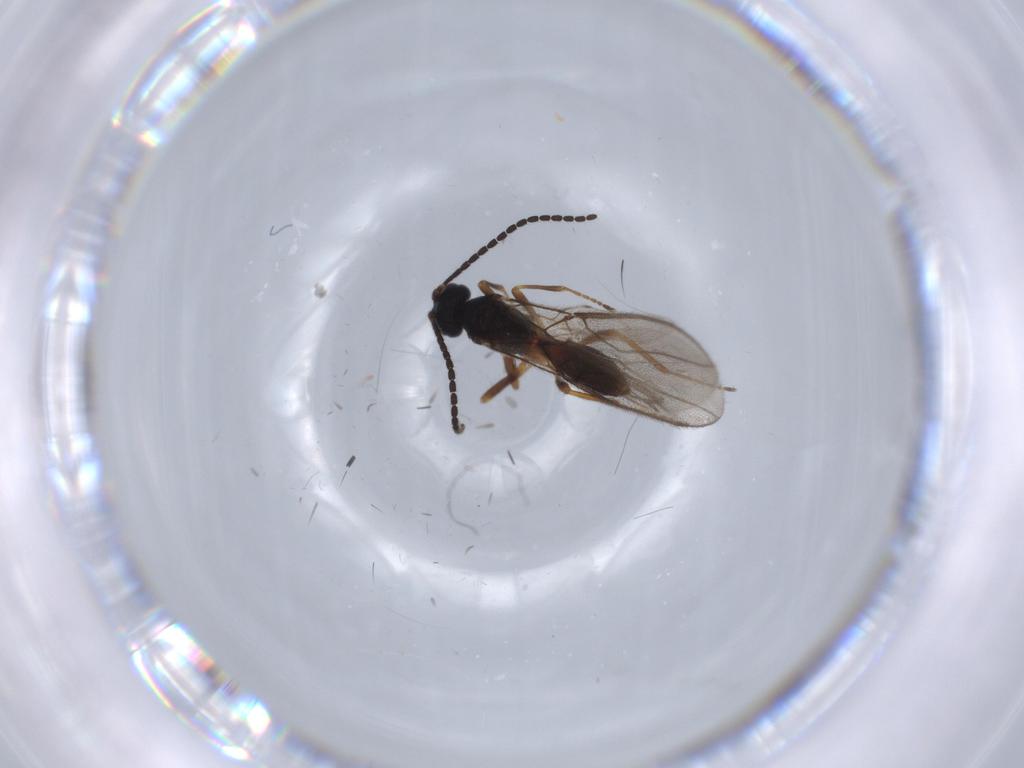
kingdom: Animalia
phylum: Arthropoda
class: Insecta
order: Hymenoptera
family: Braconidae
